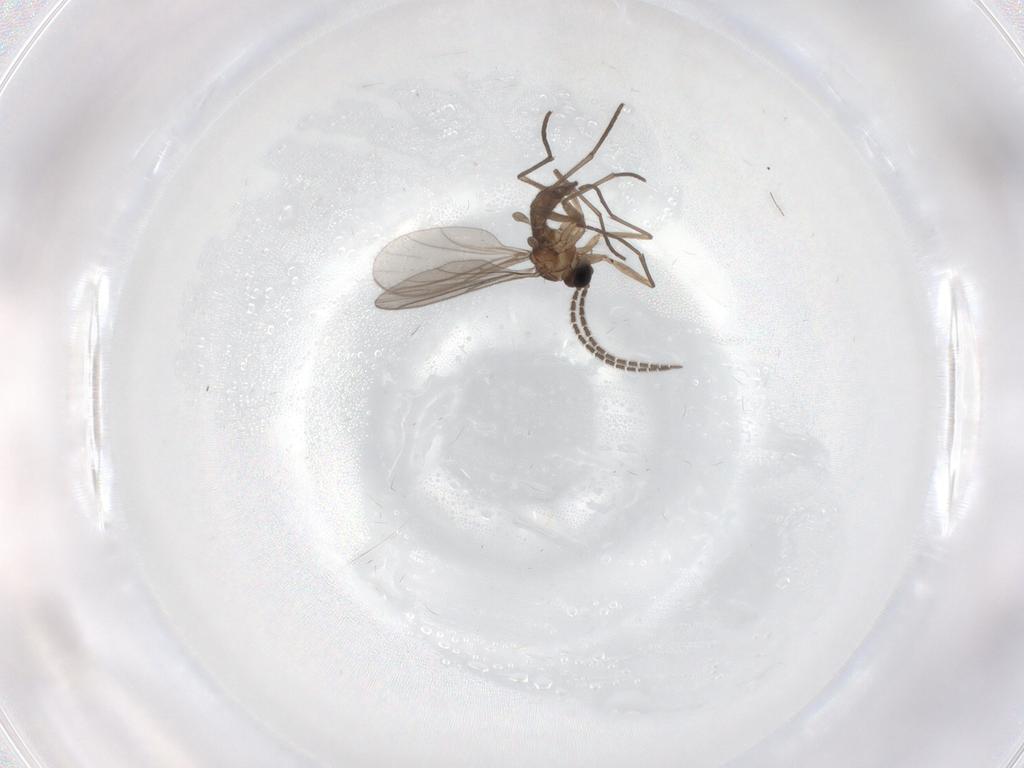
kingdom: Animalia
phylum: Arthropoda
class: Insecta
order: Diptera
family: Sciaridae
